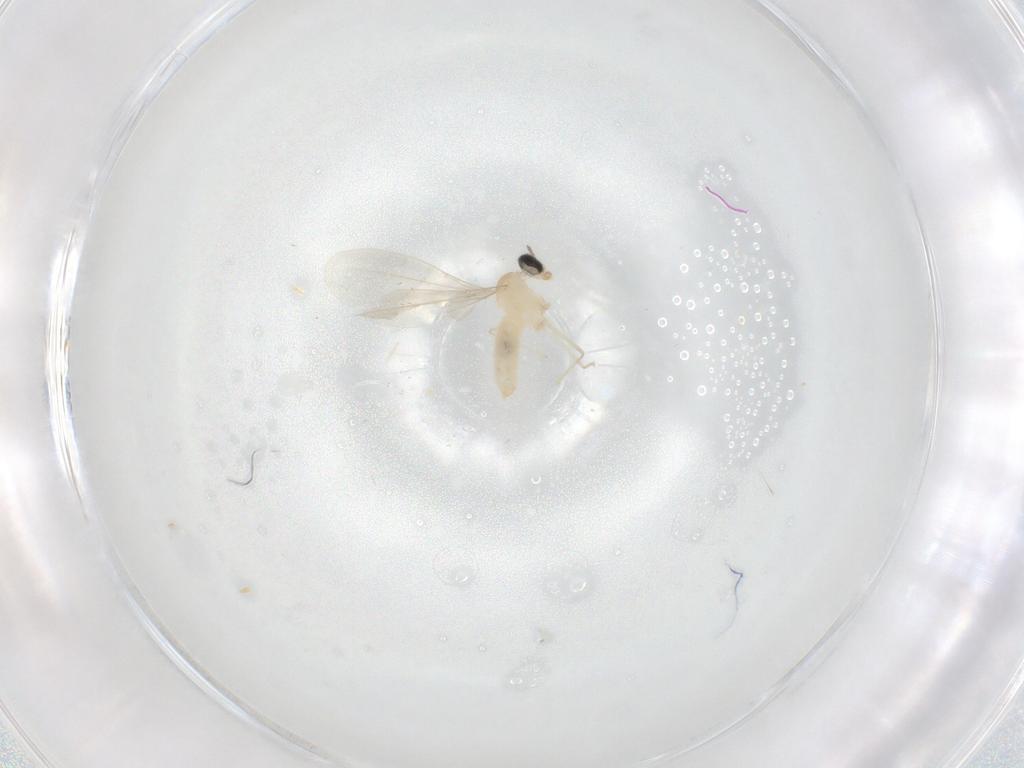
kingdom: Animalia
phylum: Arthropoda
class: Insecta
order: Diptera
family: Cecidomyiidae
